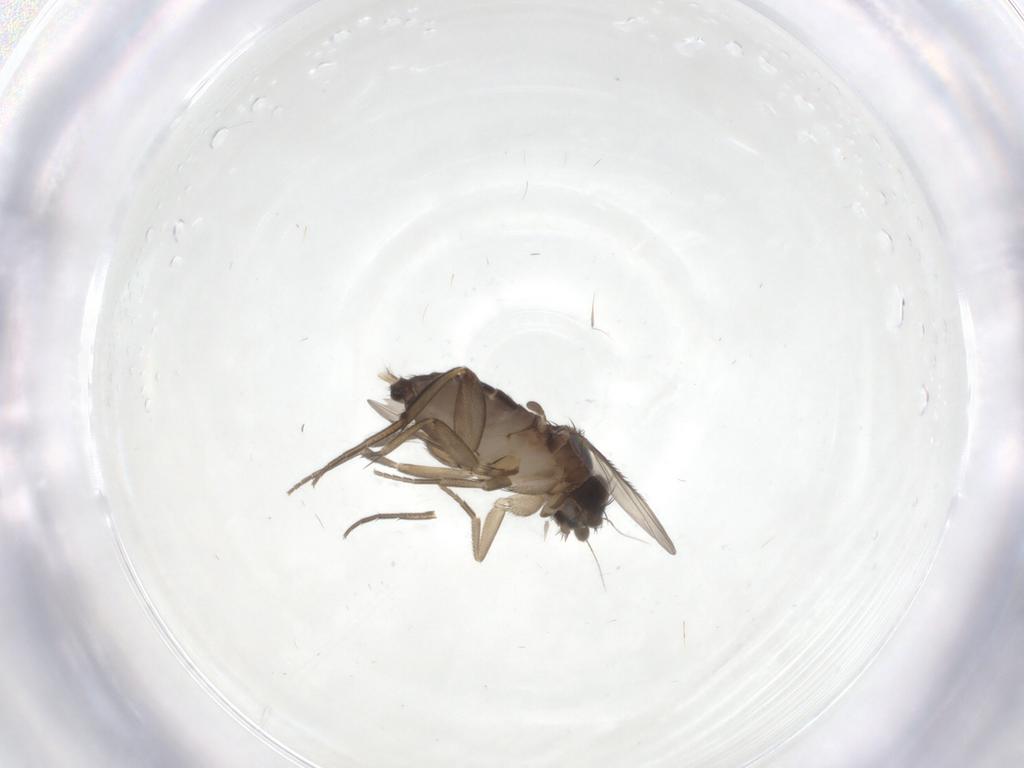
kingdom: Animalia
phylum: Arthropoda
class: Insecta
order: Diptera
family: Phoridae
